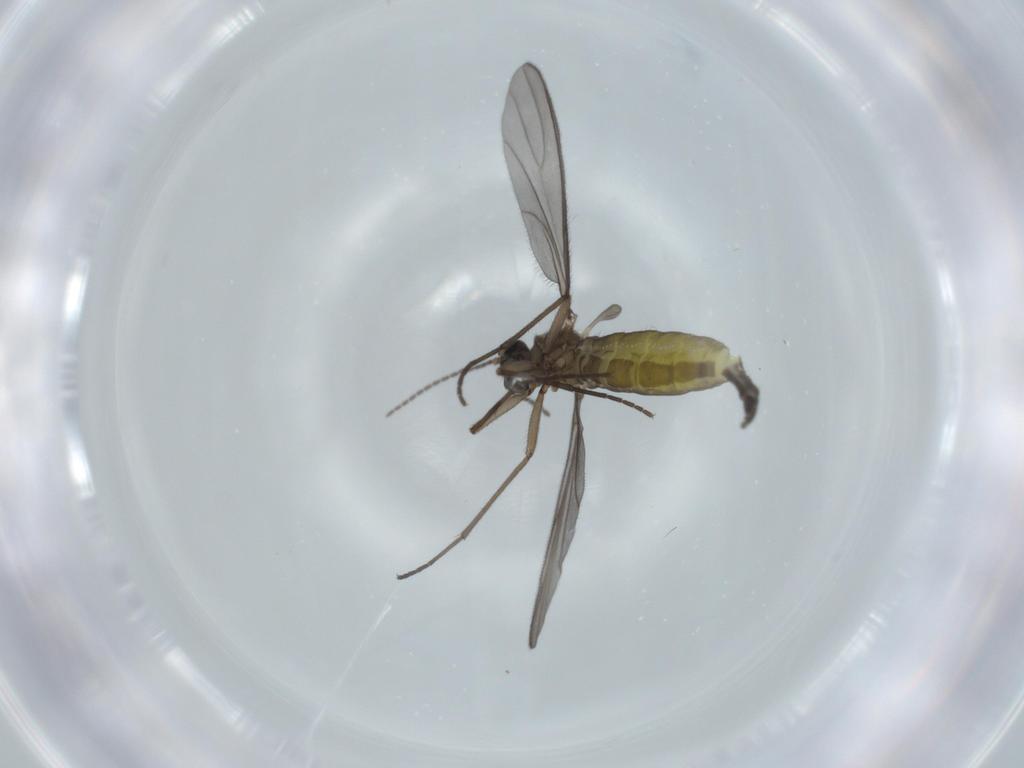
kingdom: Animalia
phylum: Arthropoda
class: Insecta
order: Diptera
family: Sciaridae
